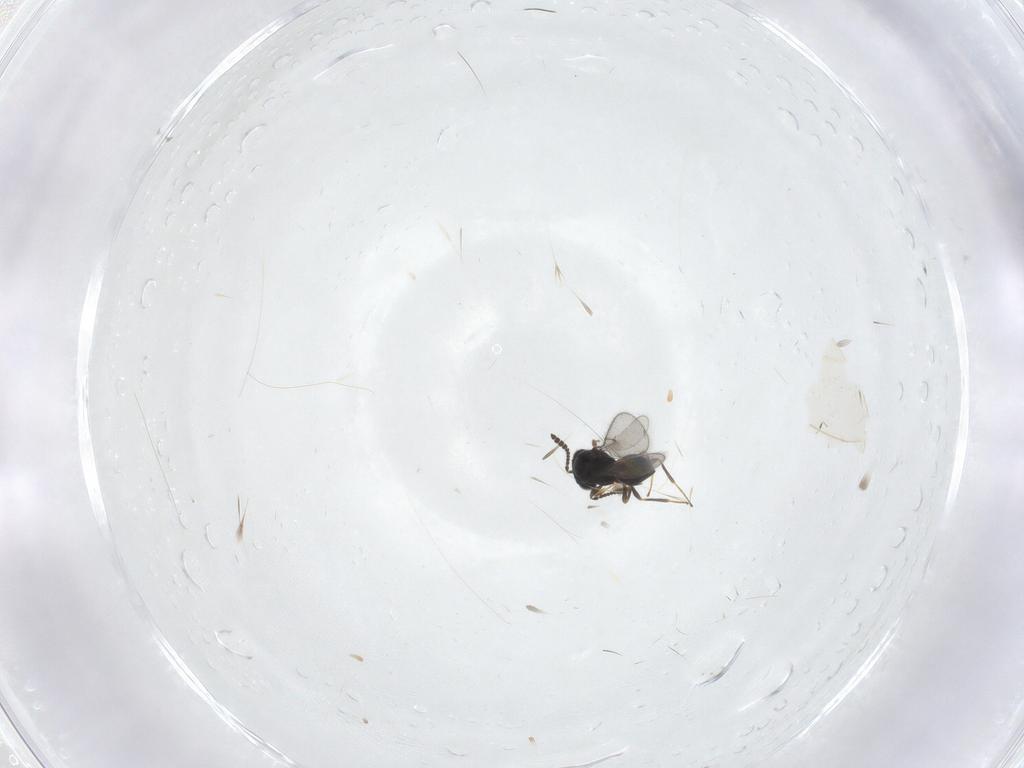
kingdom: Animalia
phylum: Arthropoda
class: Insecta
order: Hymenoptera
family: Scelionidae
